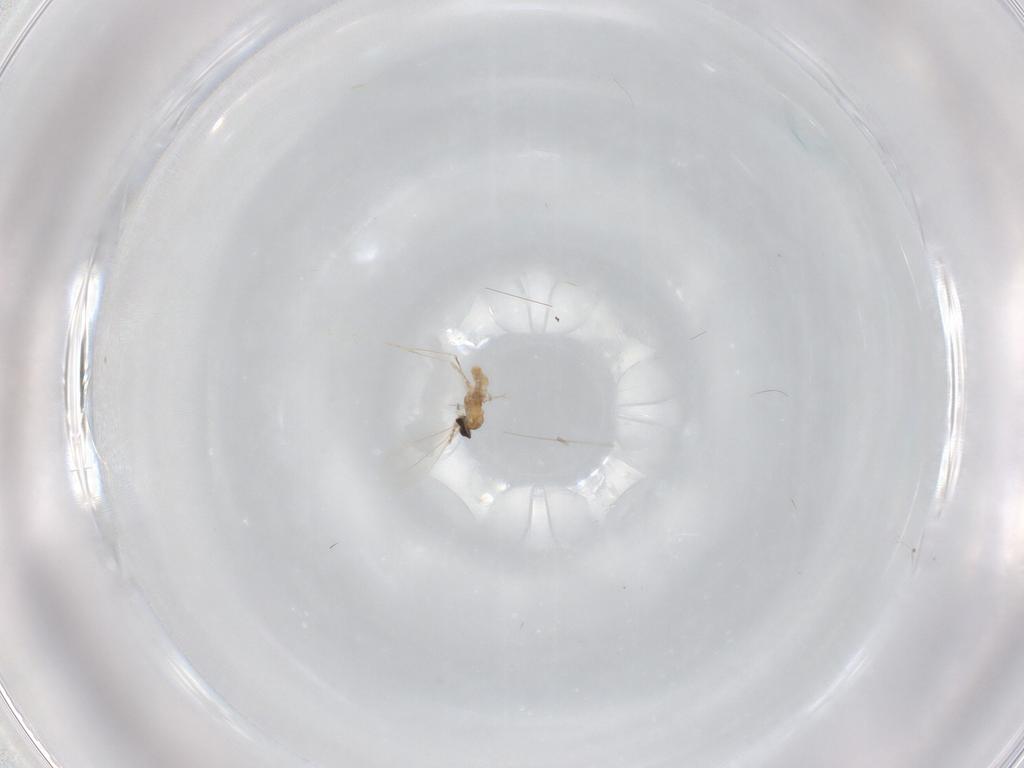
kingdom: Animalia
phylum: Arthropoda
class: Insecta
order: Diptera
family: Cecidomyiidae
